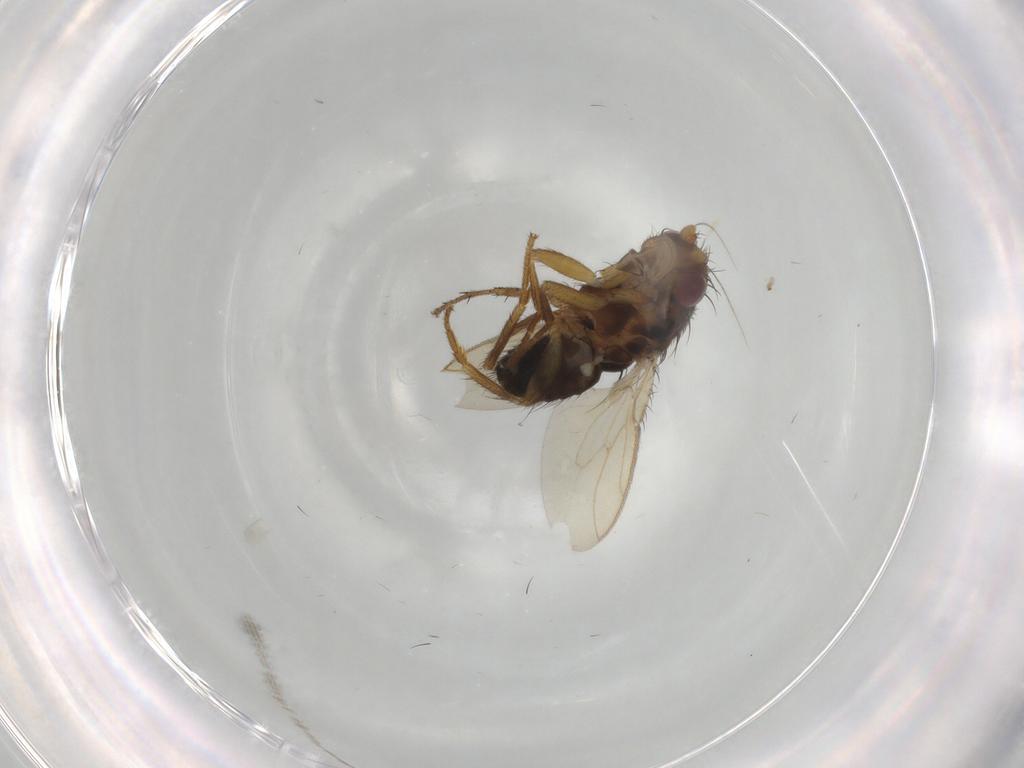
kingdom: Animalia
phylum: Arthropoda
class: Insecta
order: Diptera
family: Sphaeroceridae
